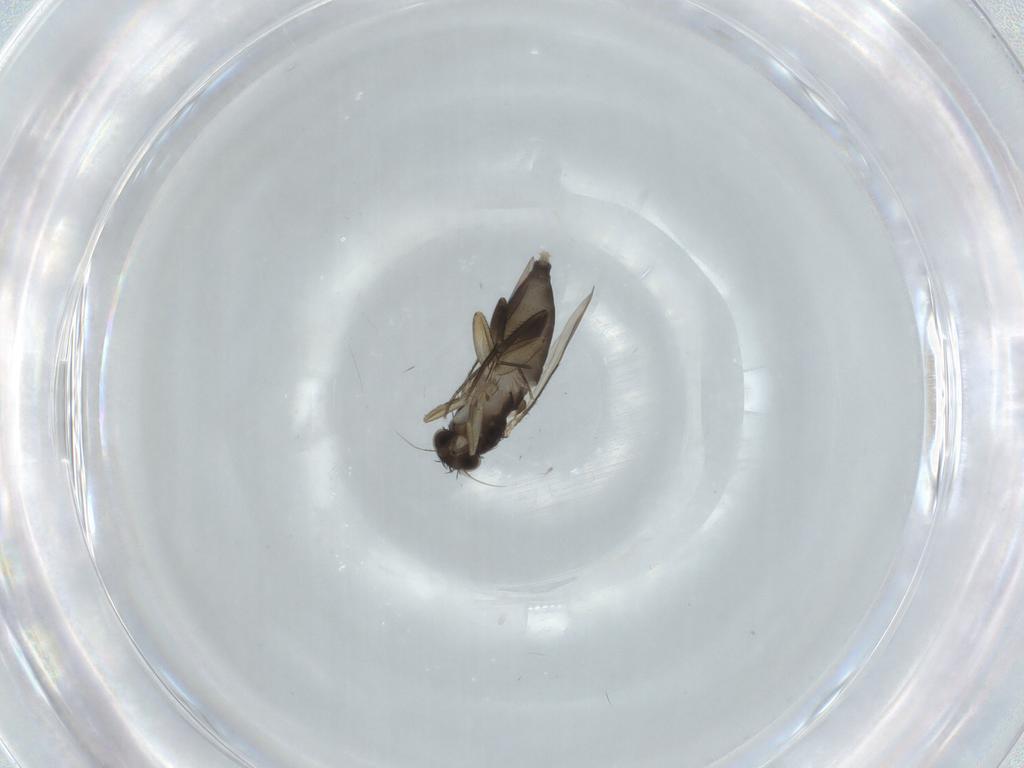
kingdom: Animalia
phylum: Arthropoda
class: Insecta
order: Diptera
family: Phoridae
